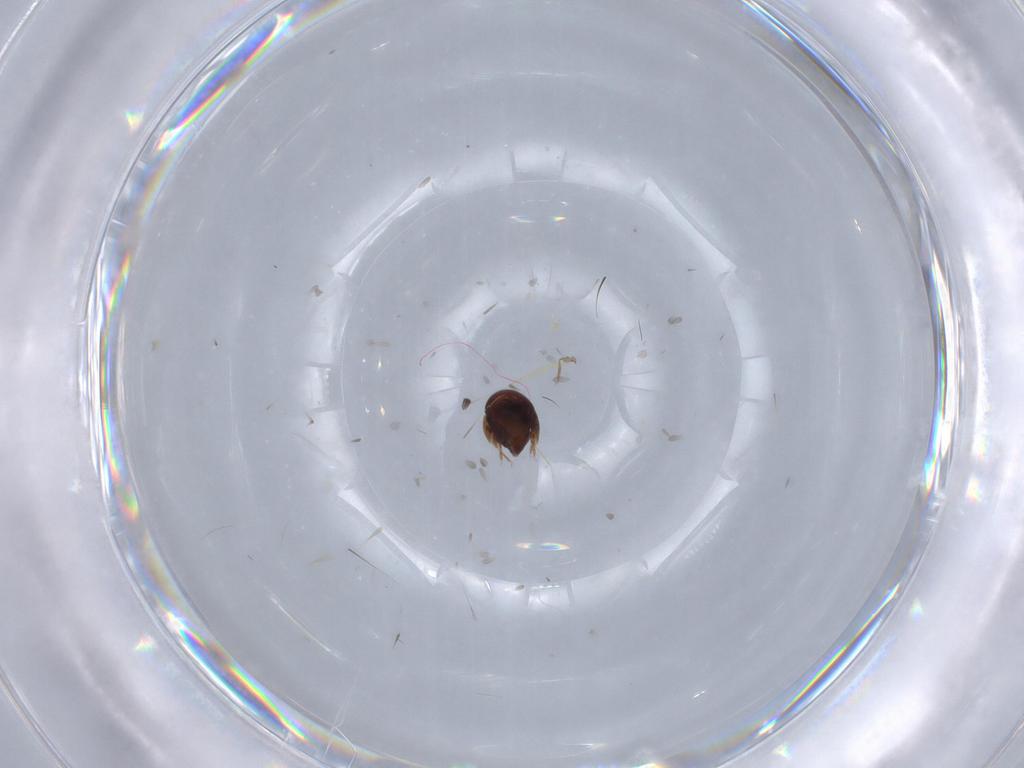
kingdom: Animalia
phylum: Arthropoda
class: Arachnida
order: Sarcoptiformes
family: Galumnidae
